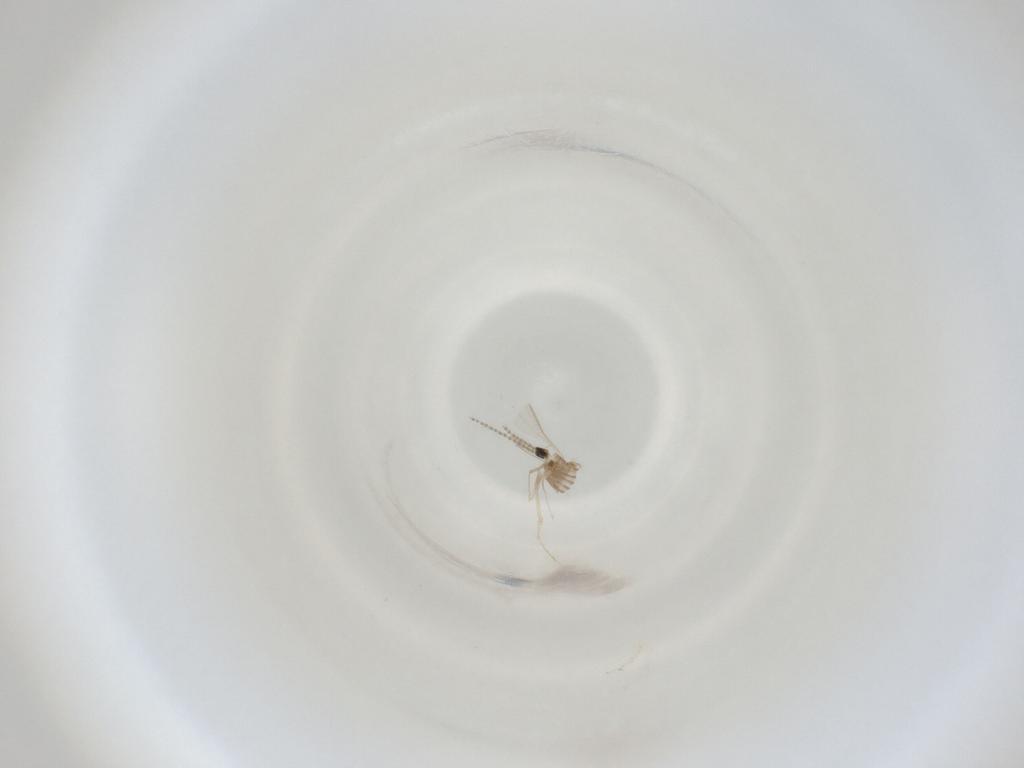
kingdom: Animalia
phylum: Arthropoda
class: Insecta
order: Diptera
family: Cecidomyiidae
